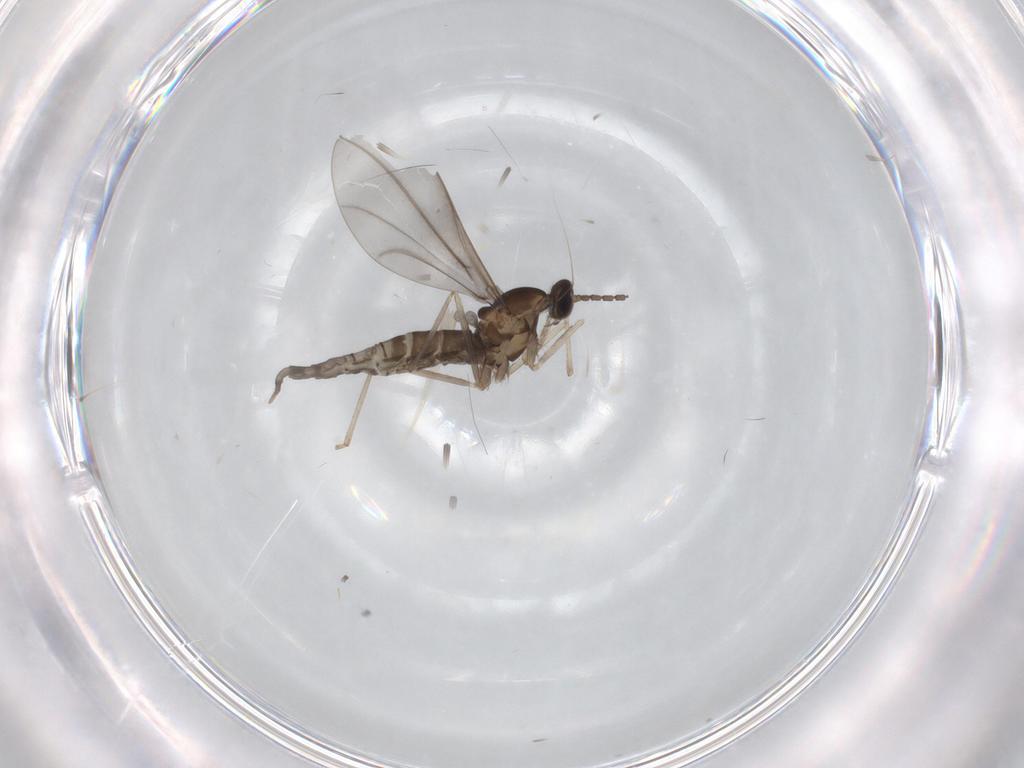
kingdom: Animalia
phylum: Arthropoda
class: Insecta
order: Diptera
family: Cecidomyiidae
